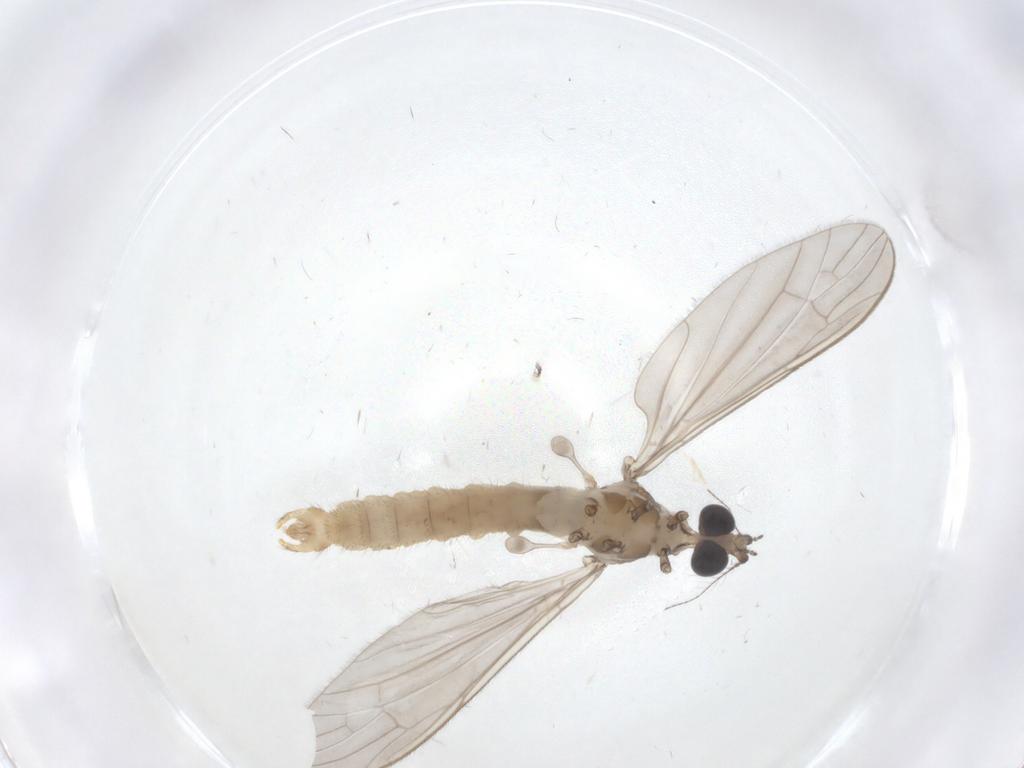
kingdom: Animalia
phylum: Arthropoda
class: Insecta
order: Diptera
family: Limoniidae
